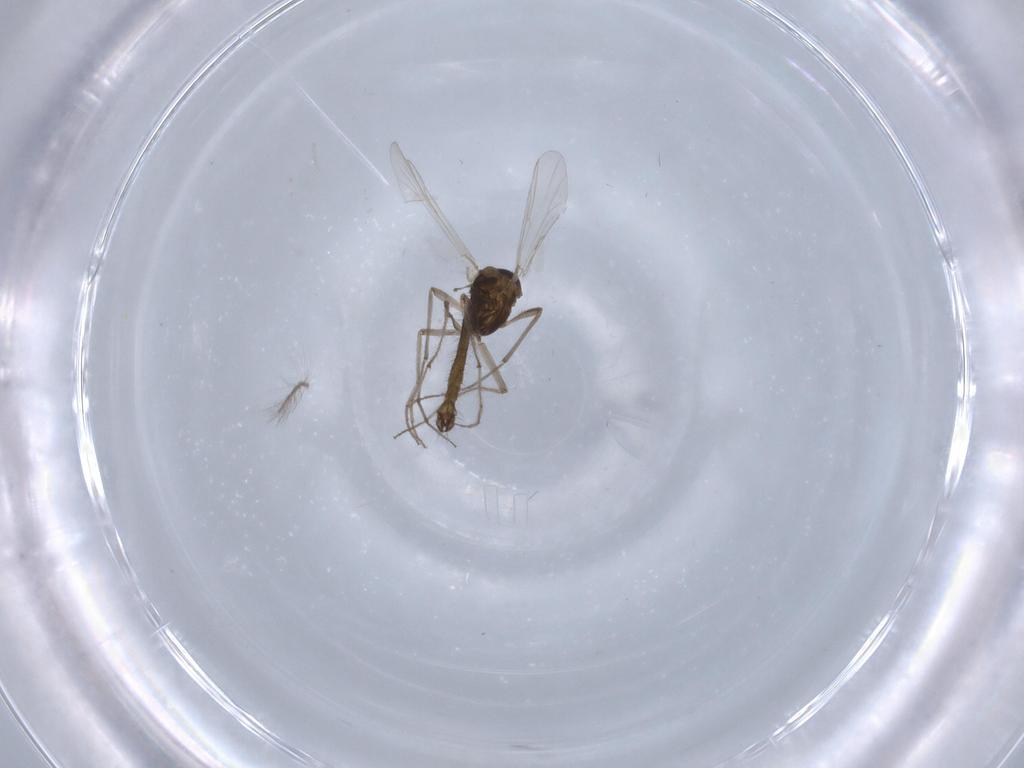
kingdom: Animalia
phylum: Arthropoda
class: Insecta
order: Diptera
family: Chironomidae
